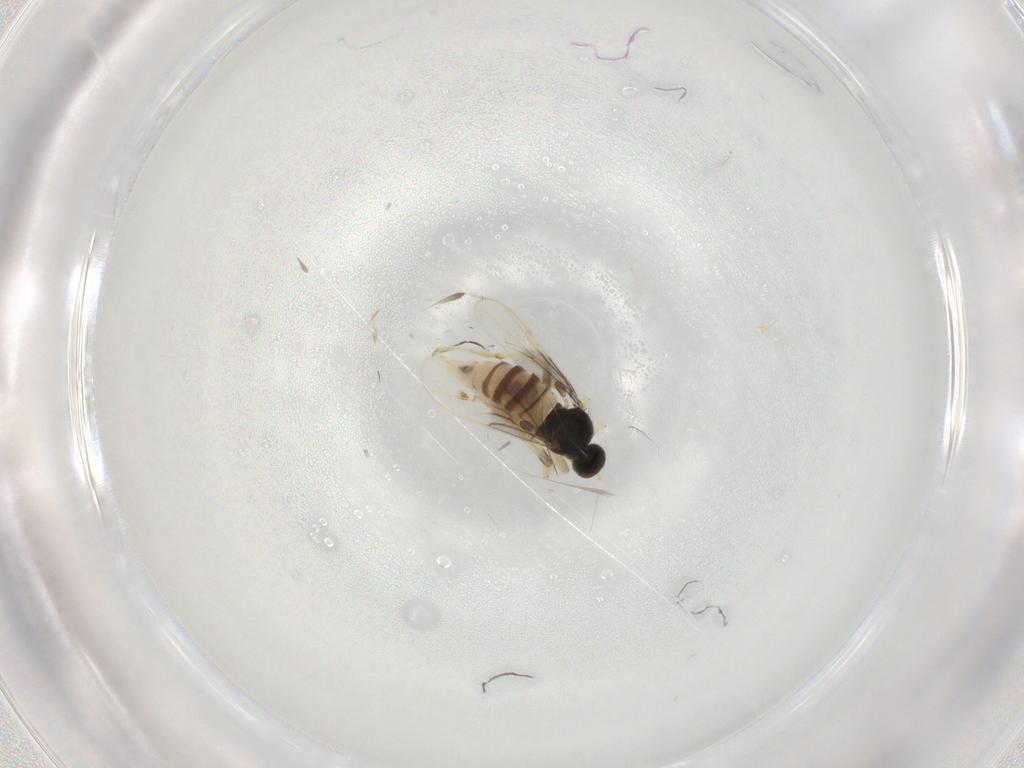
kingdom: Animalia
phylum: Arthropoda
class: Insecta
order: Diptera
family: Hybotidae
